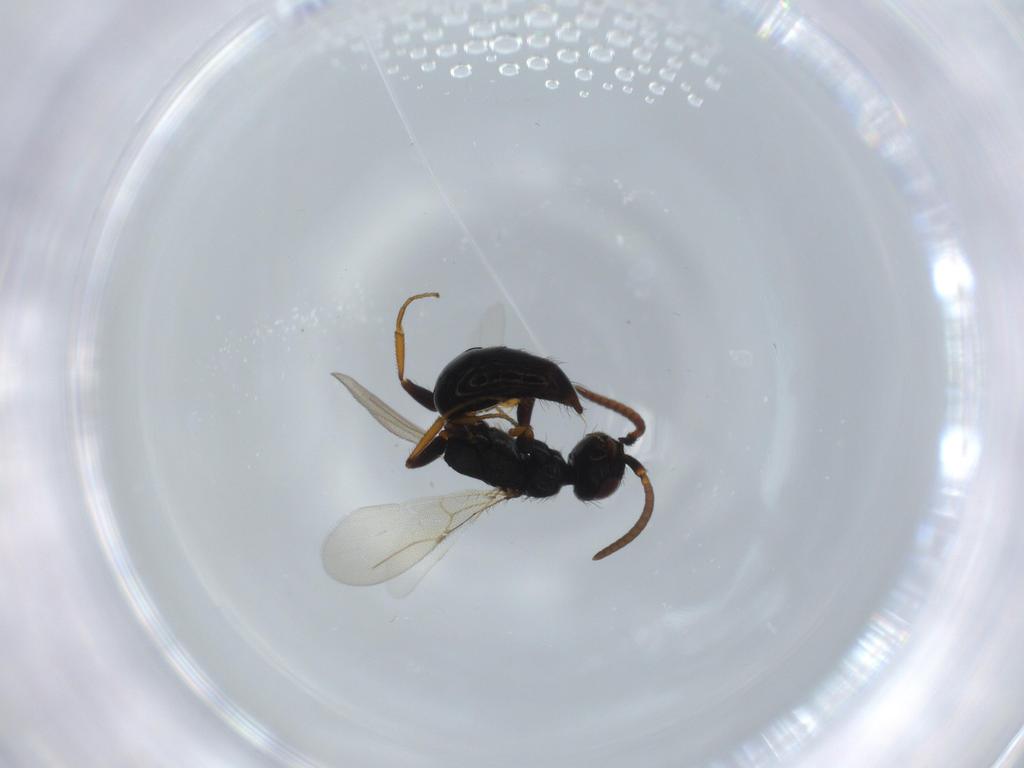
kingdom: Animalia
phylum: Arthropoda
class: Insecta
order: Hymenoptera
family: Bethylidae
